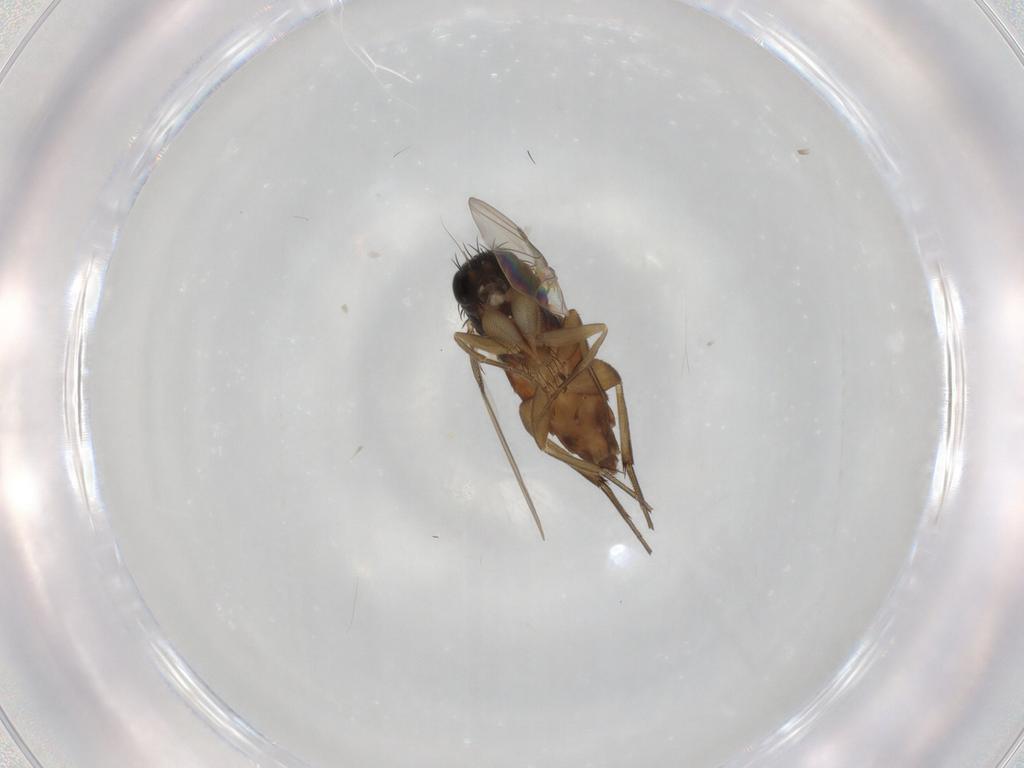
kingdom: Animalia
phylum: Arthropoda
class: Insecta
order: Diptera
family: Phoridae
